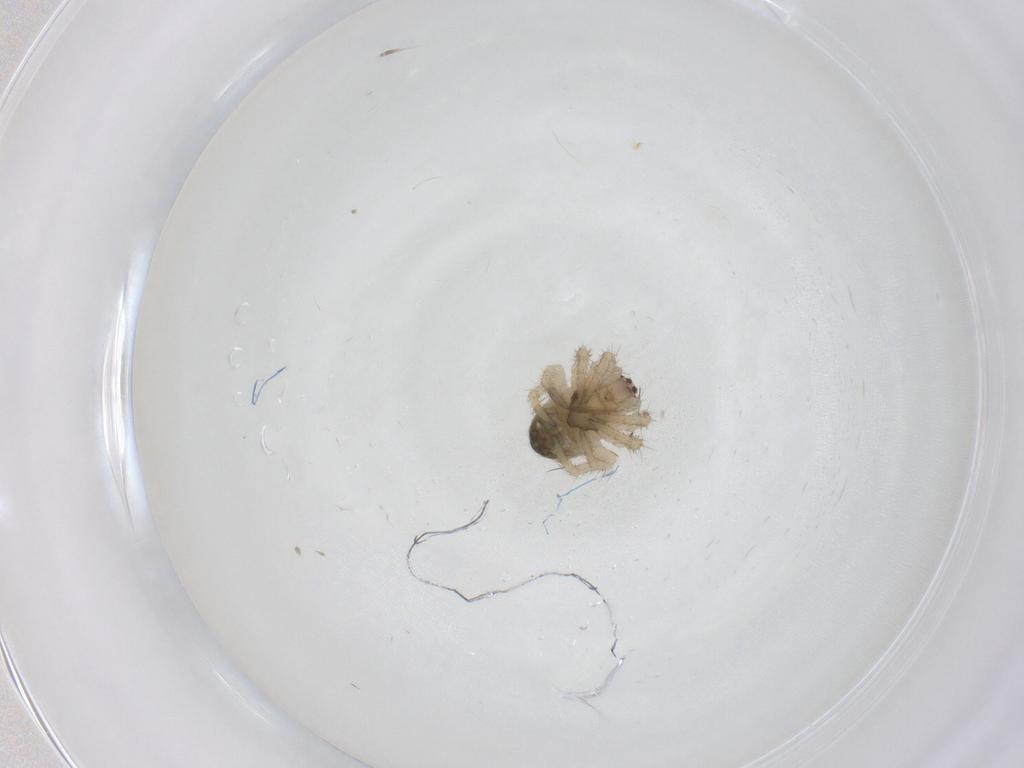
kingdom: Animalia
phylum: Arthropoda
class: Arachnida
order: Araneae
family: Araneidae
